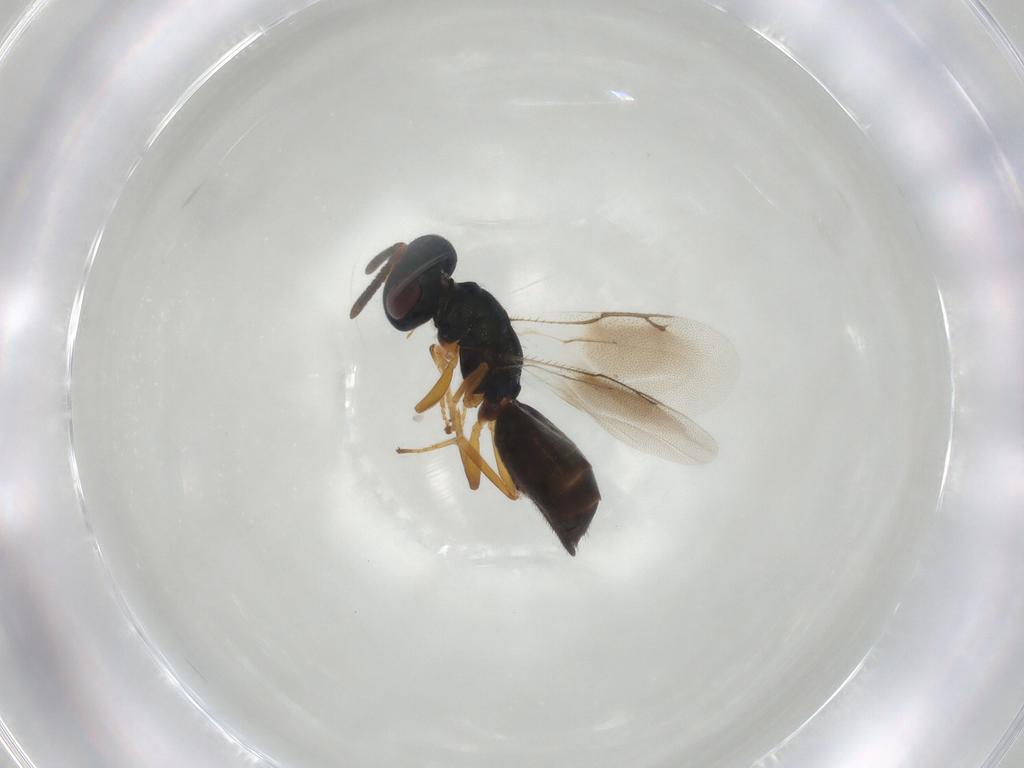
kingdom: Animalia
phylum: Arthropoda
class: Insecta
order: Hymenoptera
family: Pteromalidae
